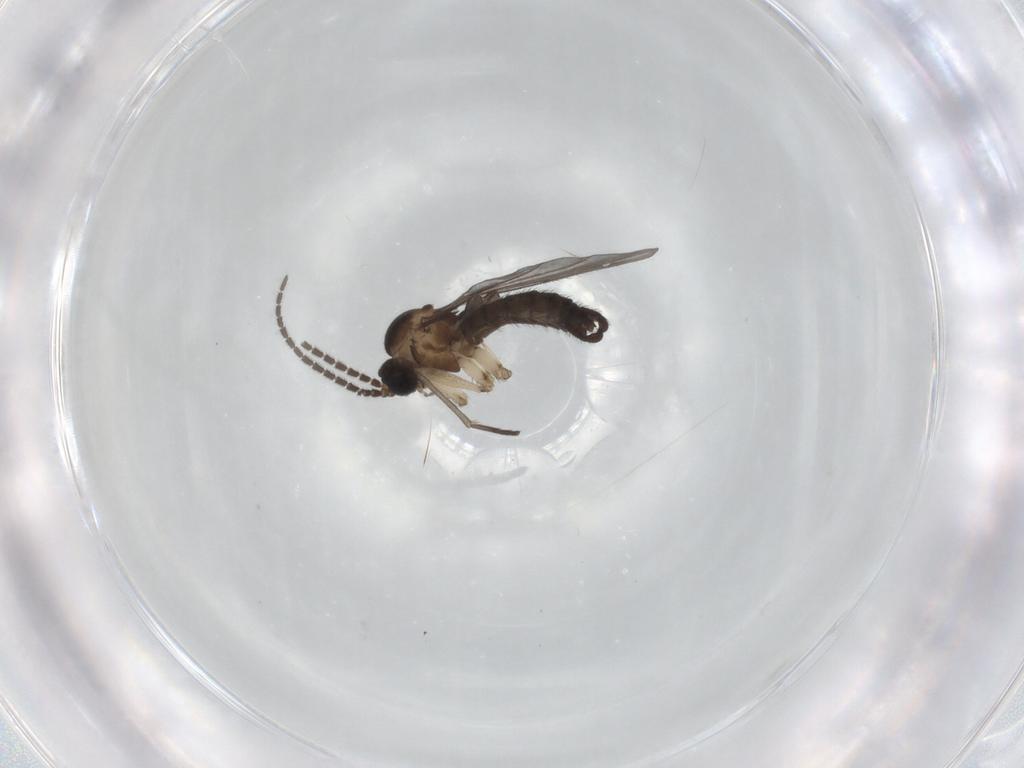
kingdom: Animalia
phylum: Arthropoda
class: Insecta
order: Diptera
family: Sciaridae
